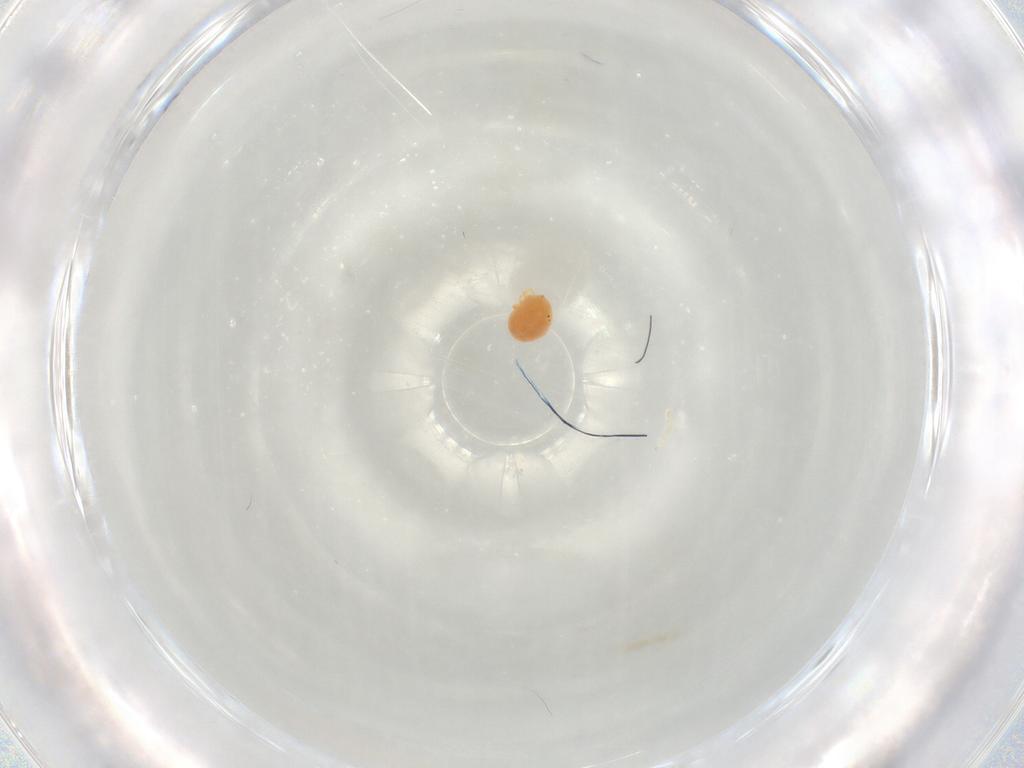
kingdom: Animalia
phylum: Arthropoda
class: Arachnida
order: Trombidiformes
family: Hydryphantidae
